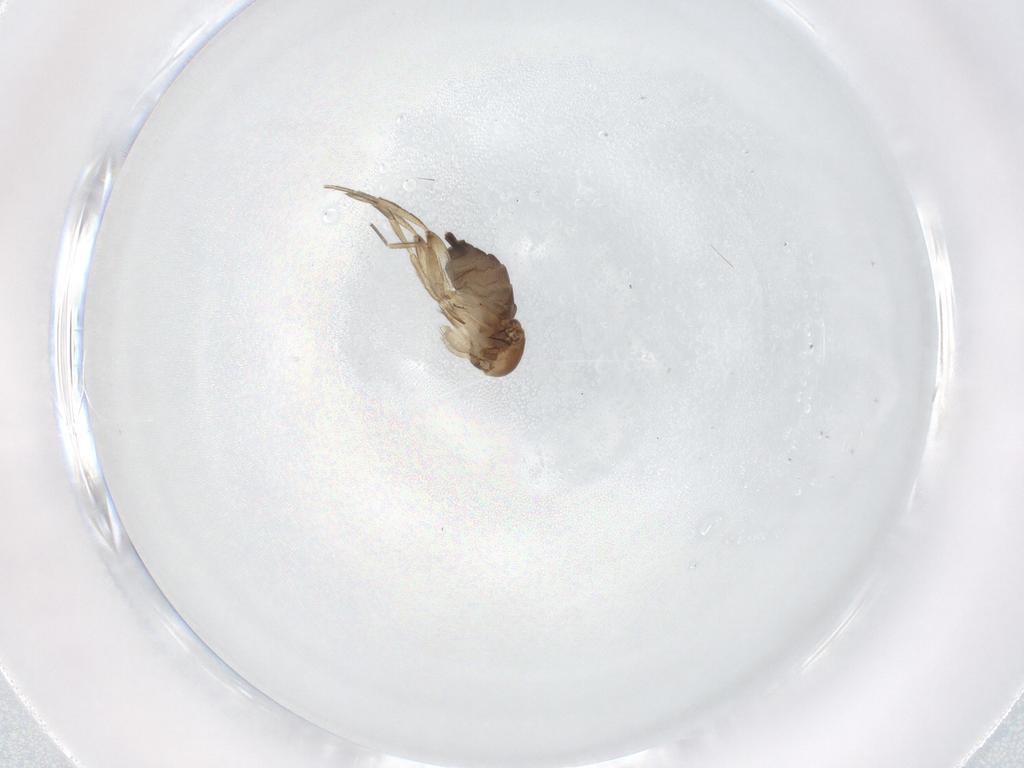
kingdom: Animalia
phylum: Arthropoda
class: Insecta
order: Diptera
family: Phoridae
